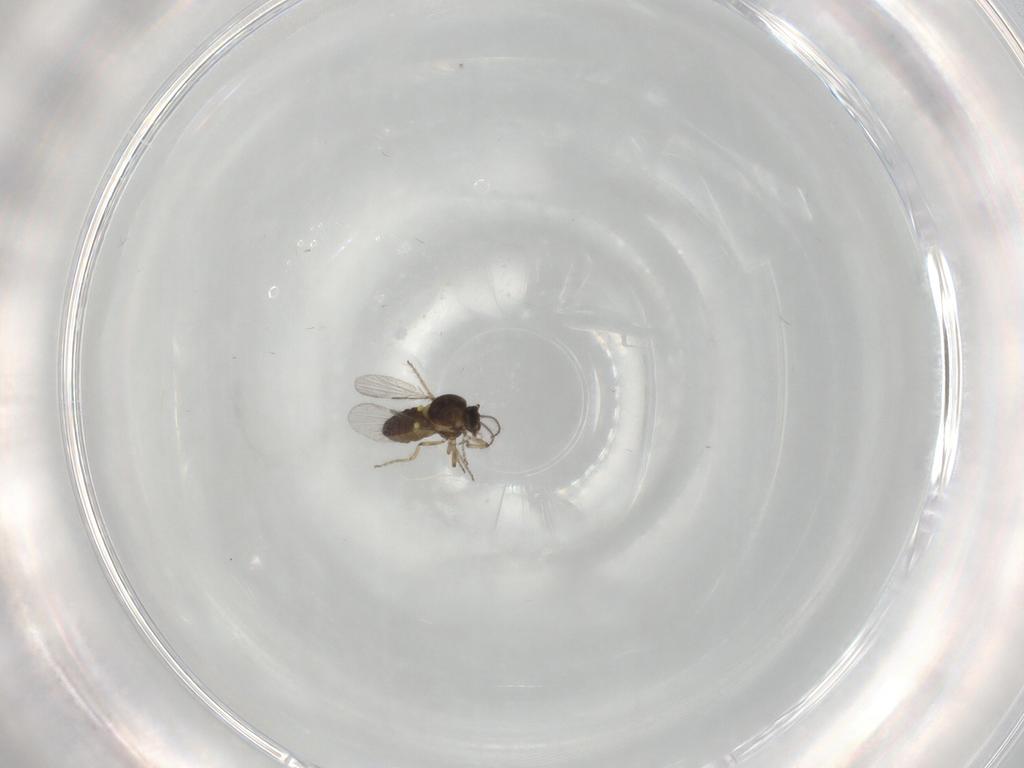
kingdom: Animalia
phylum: Arthropoda
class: Insecta
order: Diptera
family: Ceratopogonidae
